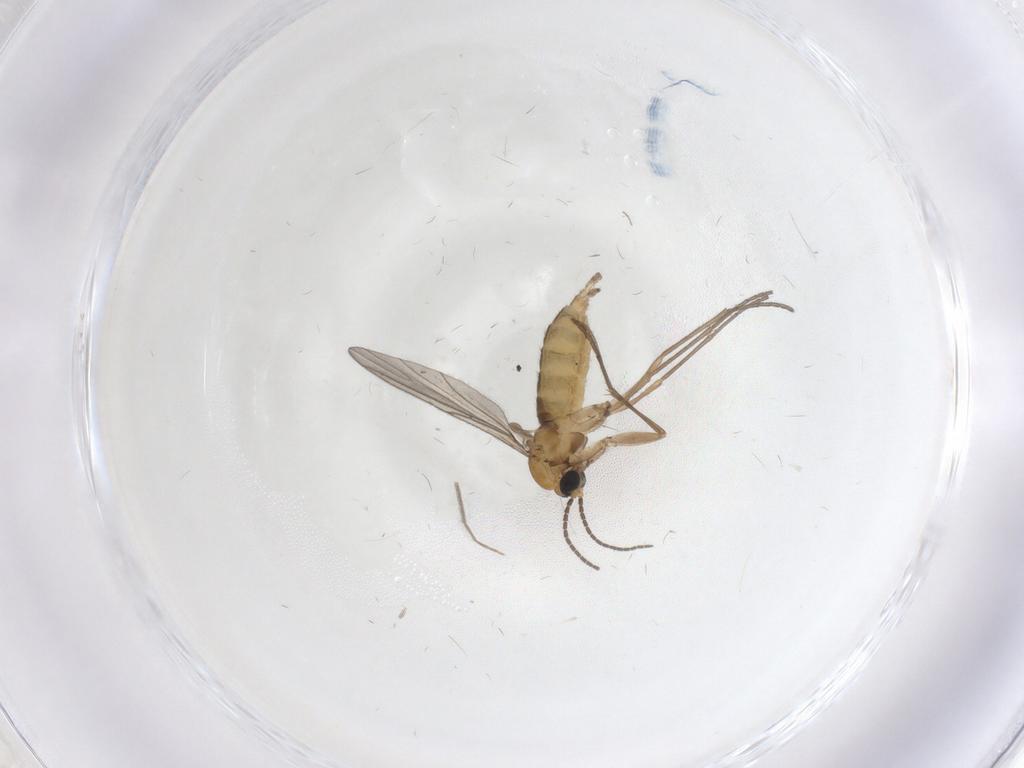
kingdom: Animalia
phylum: Arthropoda
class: Insecta
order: Diptera
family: Sciaridae
